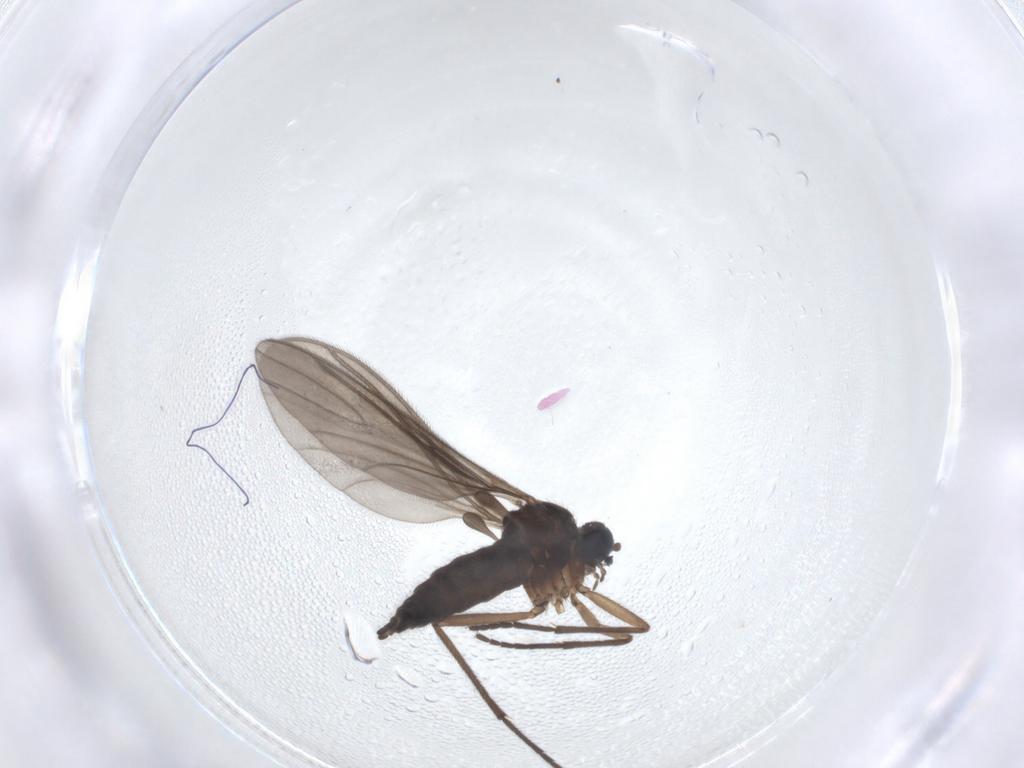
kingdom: Animalia
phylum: Arthropoda
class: Insecta
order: Diptera
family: Sciaridae
